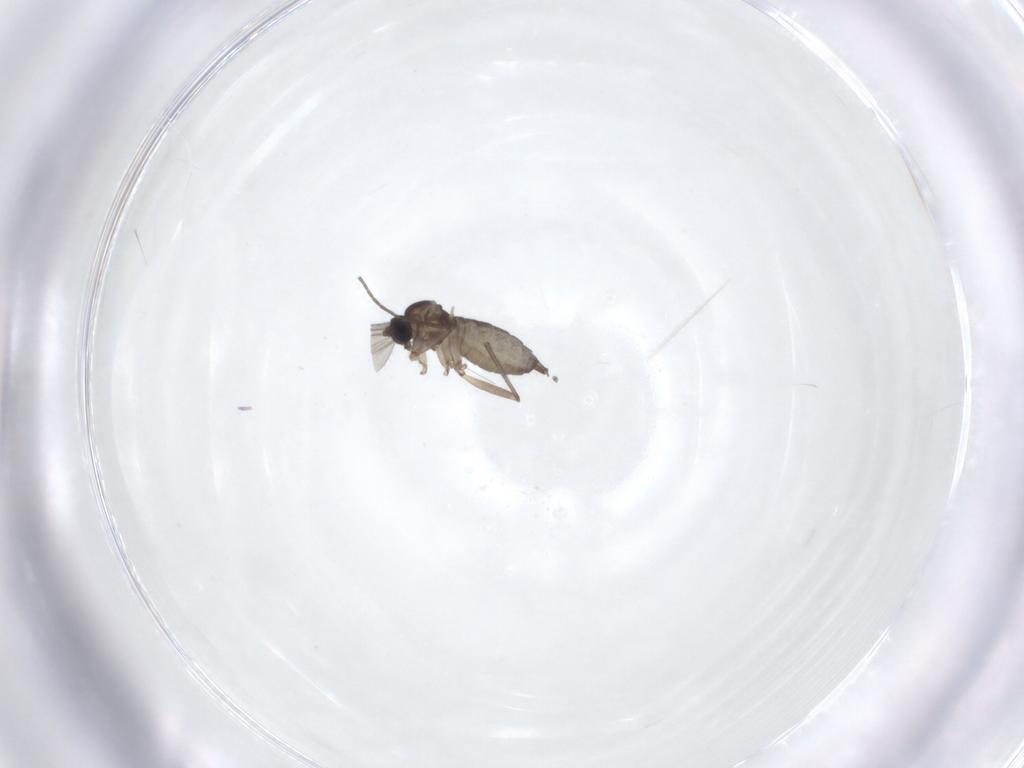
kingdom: Animalia
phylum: Arthropoda
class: Insecta
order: Diptera
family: Sciaridae
